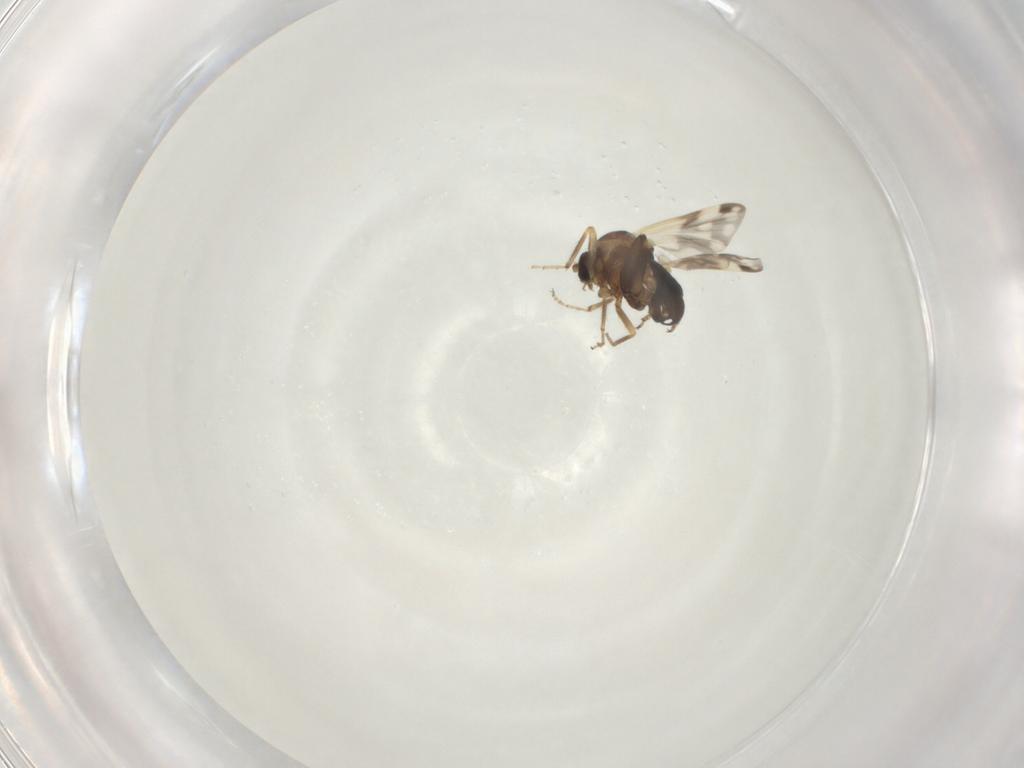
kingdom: Animalia
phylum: Arthropoda
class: Insecta
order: Diptera
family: Ceratopogonidae
